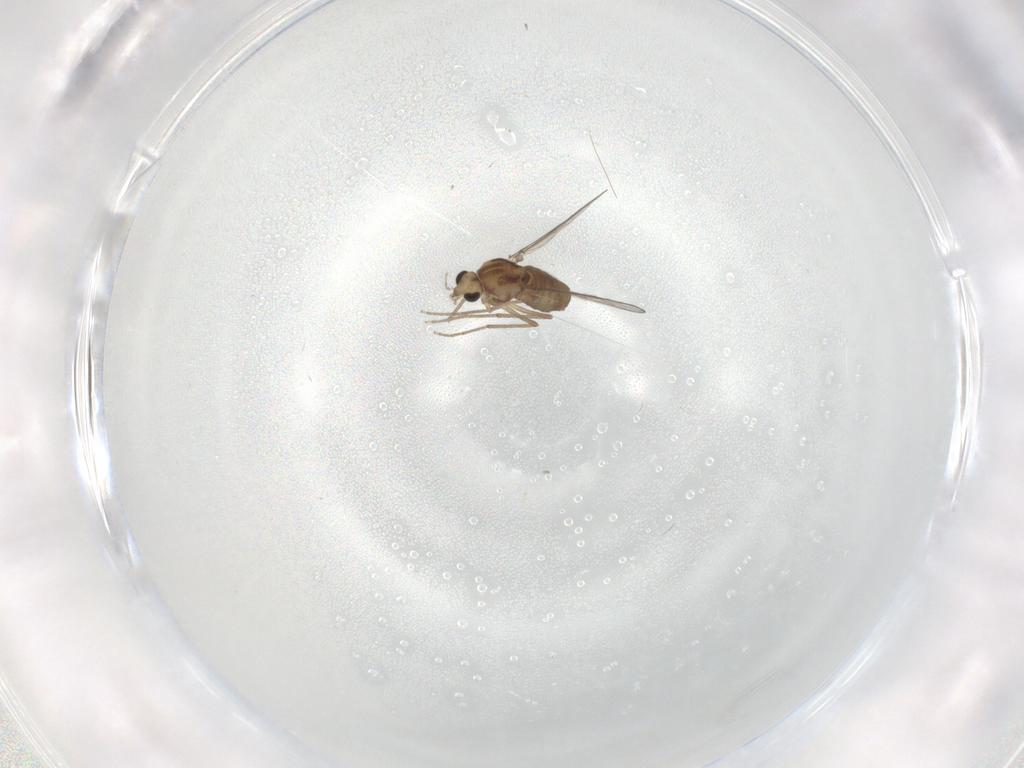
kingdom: Animalia
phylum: Arthropoda
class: Insecta
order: Diptera
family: Chironomidae
